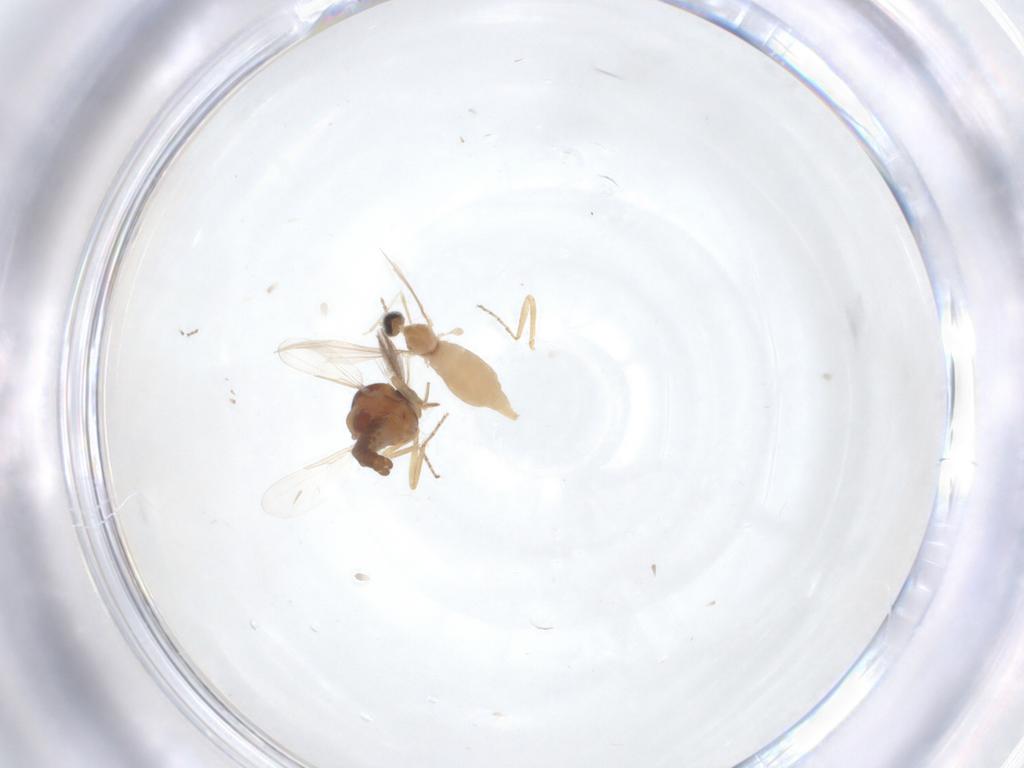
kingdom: Animalia
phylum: Arthropoda
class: Insecta
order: Diptera
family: Cecidomyiidae
